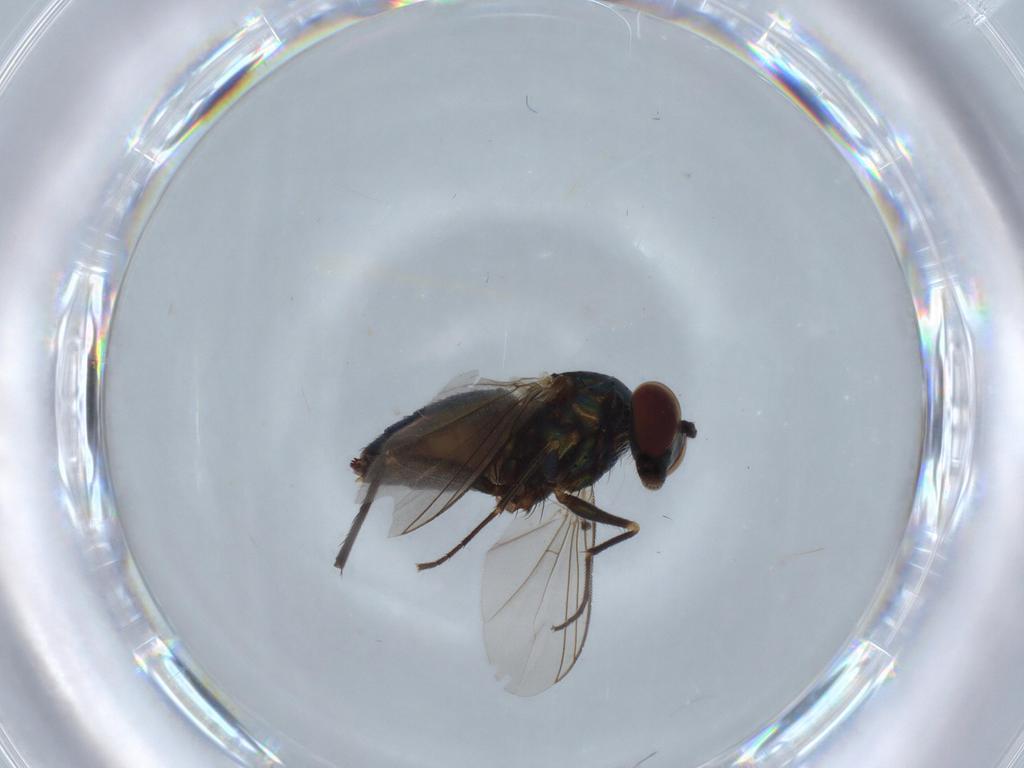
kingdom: Animalia
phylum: Arthropoda
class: Insecta
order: Diptera
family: Dolichopodidae
